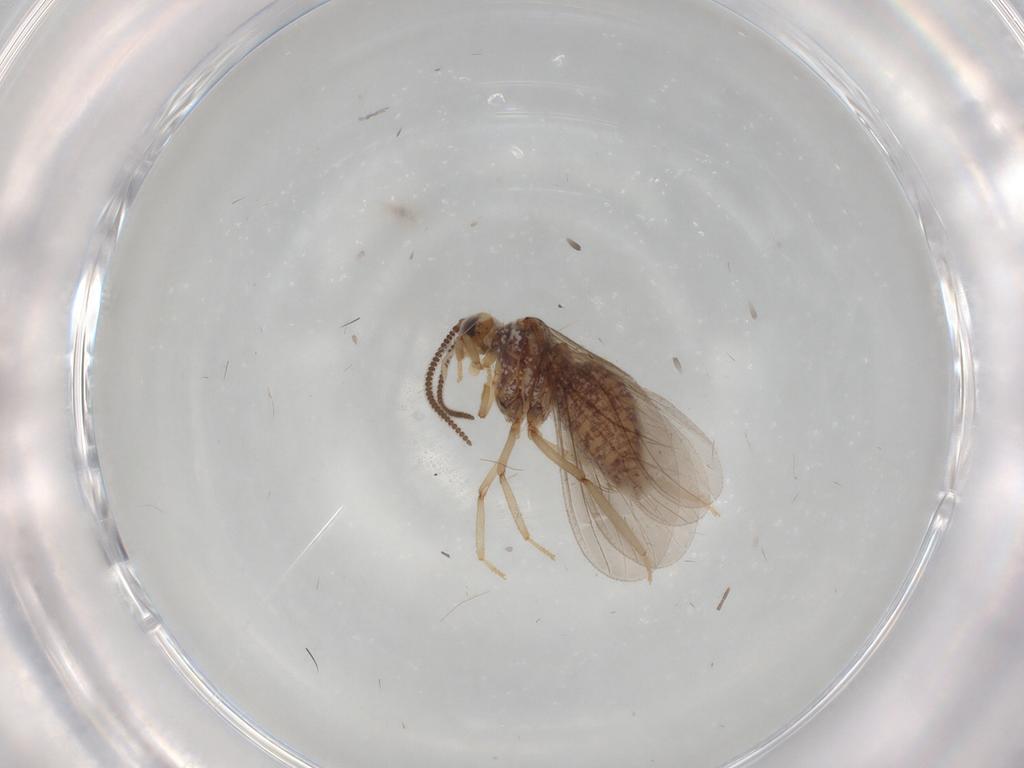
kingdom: Animalia
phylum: Arthropoda
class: Insecta
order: Neuroptera
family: Coniopterygidae
